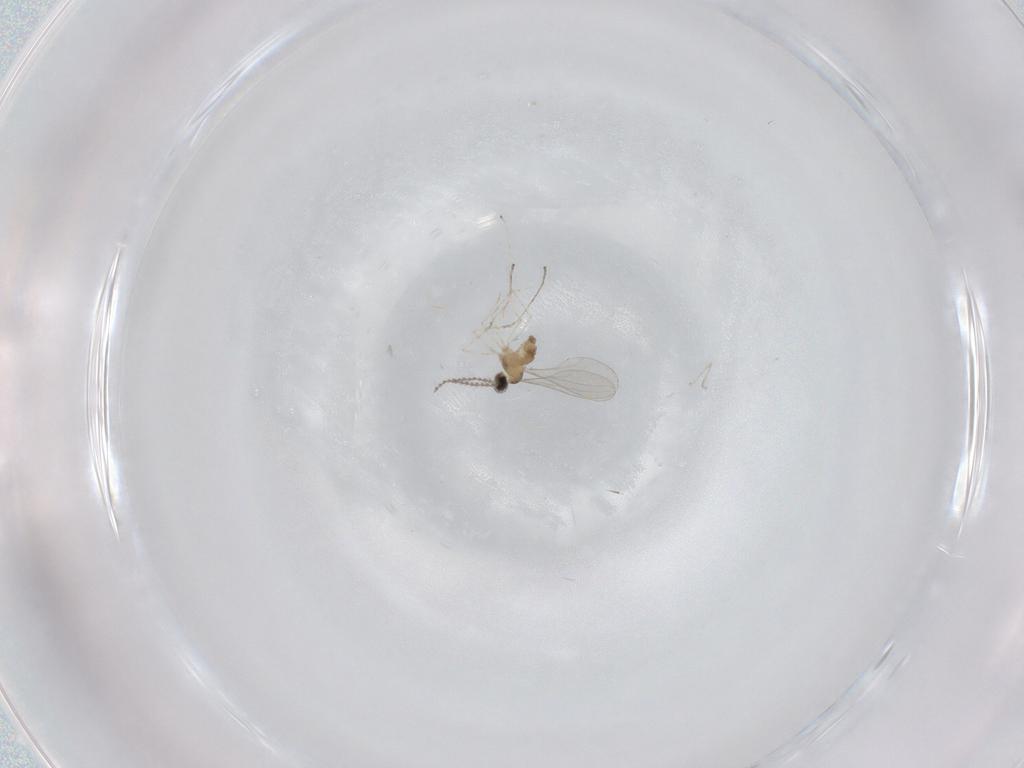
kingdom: Animalia
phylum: Arthropoda
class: Insecta
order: Diptera
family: Cecidomyiidae
